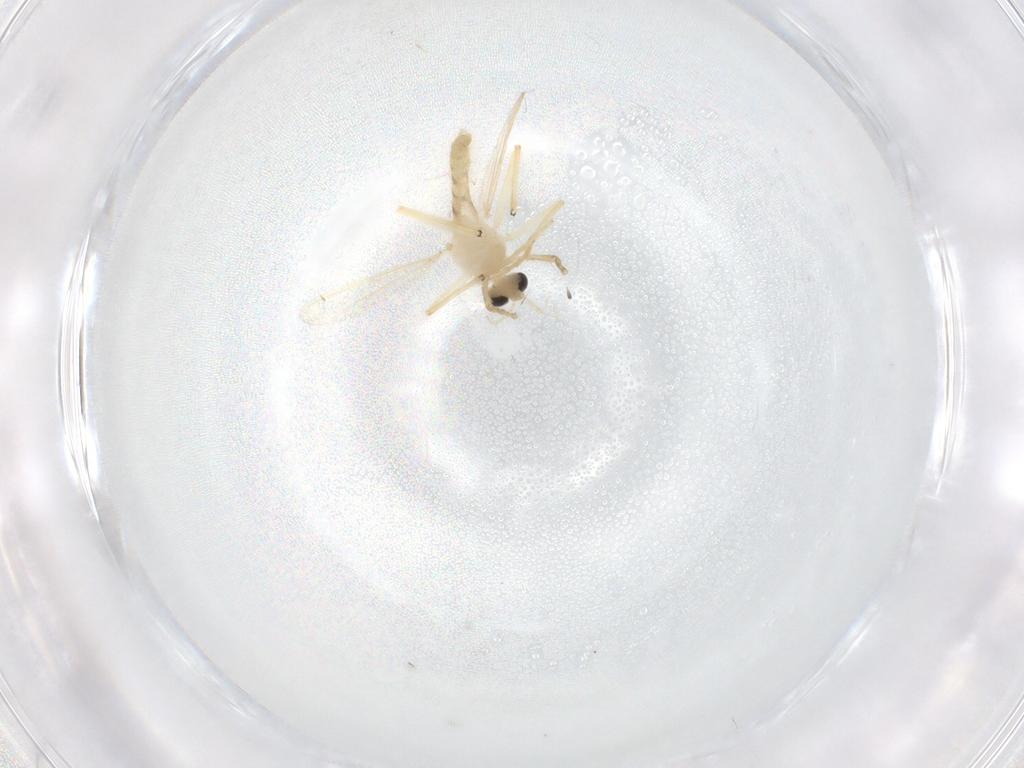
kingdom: Animalia
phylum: Arthropoda
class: Insecta
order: Diptera
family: Chironomidae
